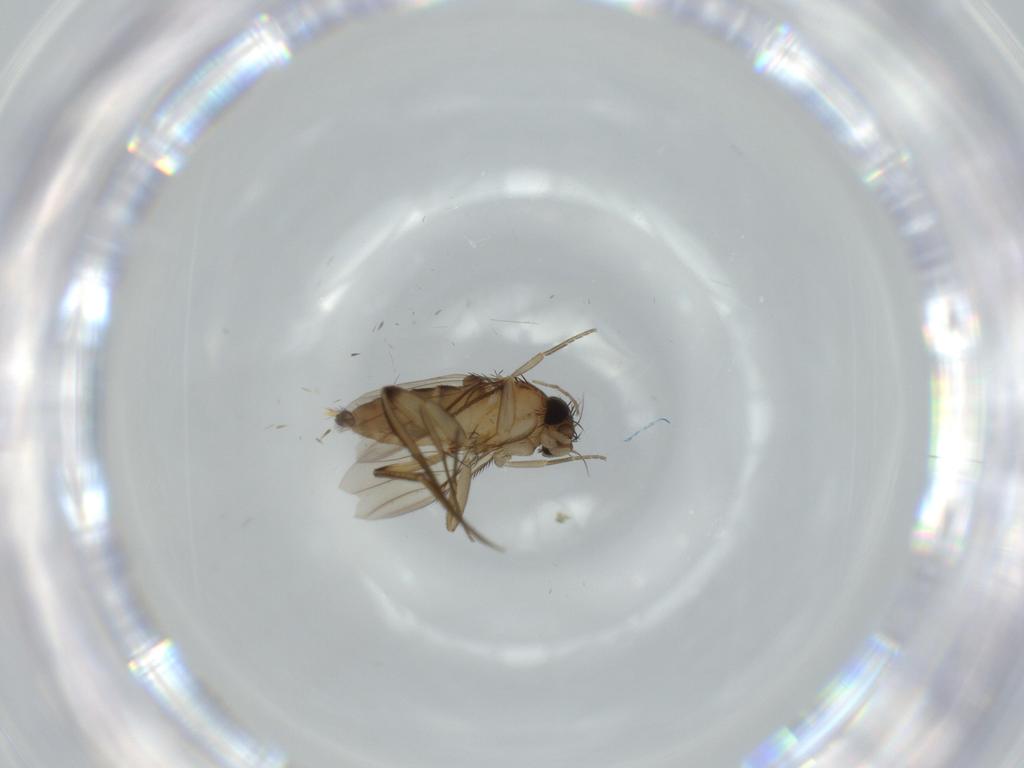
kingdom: Animalia
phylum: Arthropoda
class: Insecta
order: Diptera
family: Phoridae
